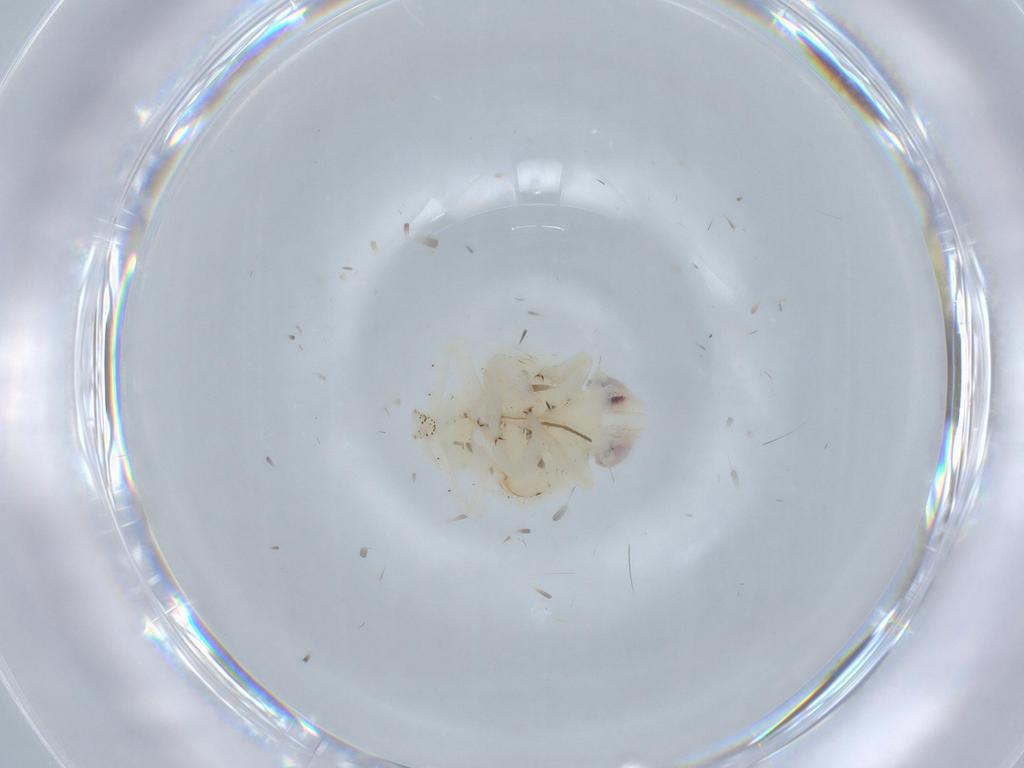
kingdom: Animalia
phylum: Arthropoda
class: Insecta
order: Hemiptera
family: Nogodinidae
